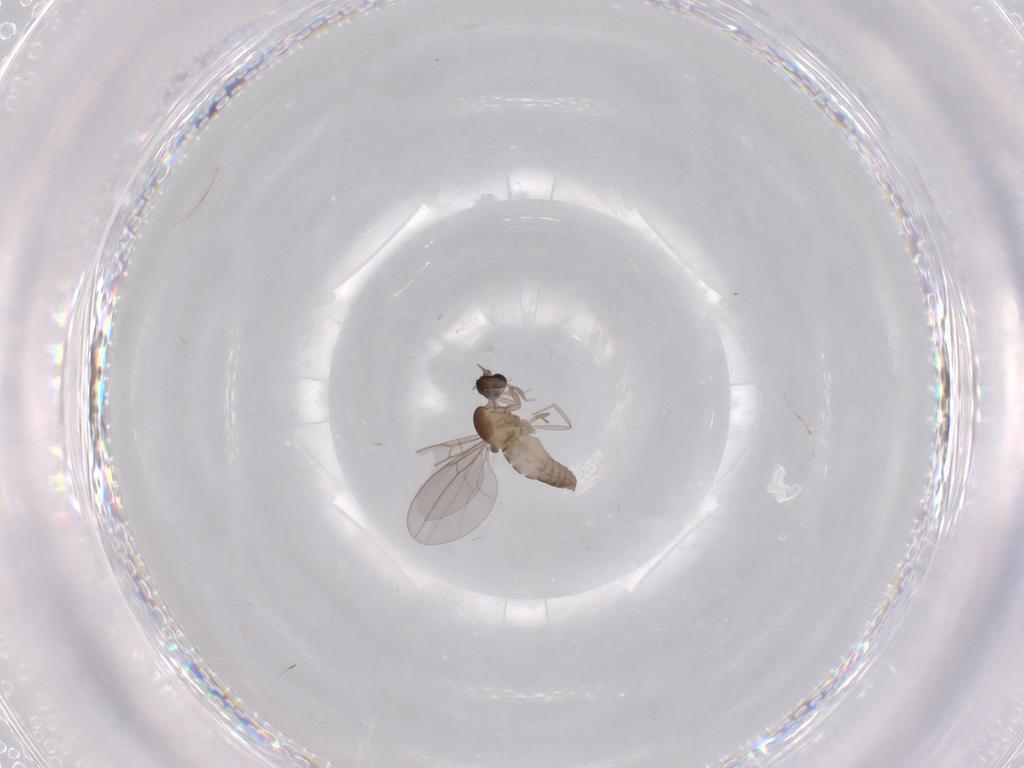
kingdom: Animalia
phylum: Arthropoda
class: Insecta
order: Diptera
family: Cecidomyiidae
